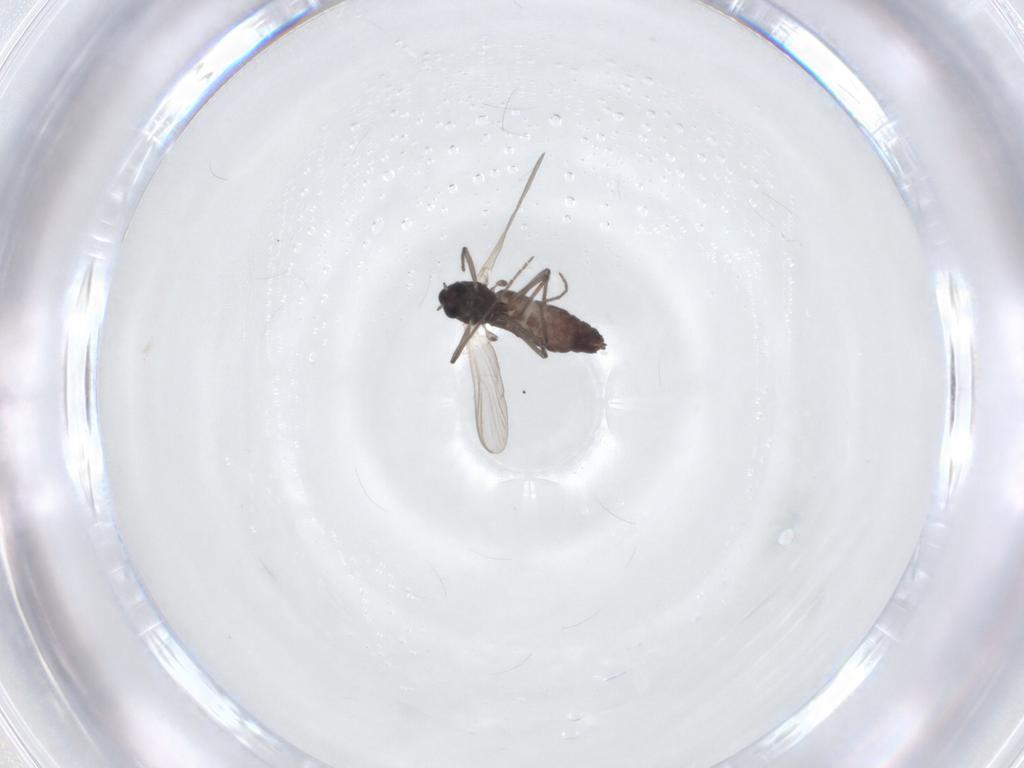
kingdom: Animalia
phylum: Arthropoda
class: Insecta
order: Diptera
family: Chironomidae
